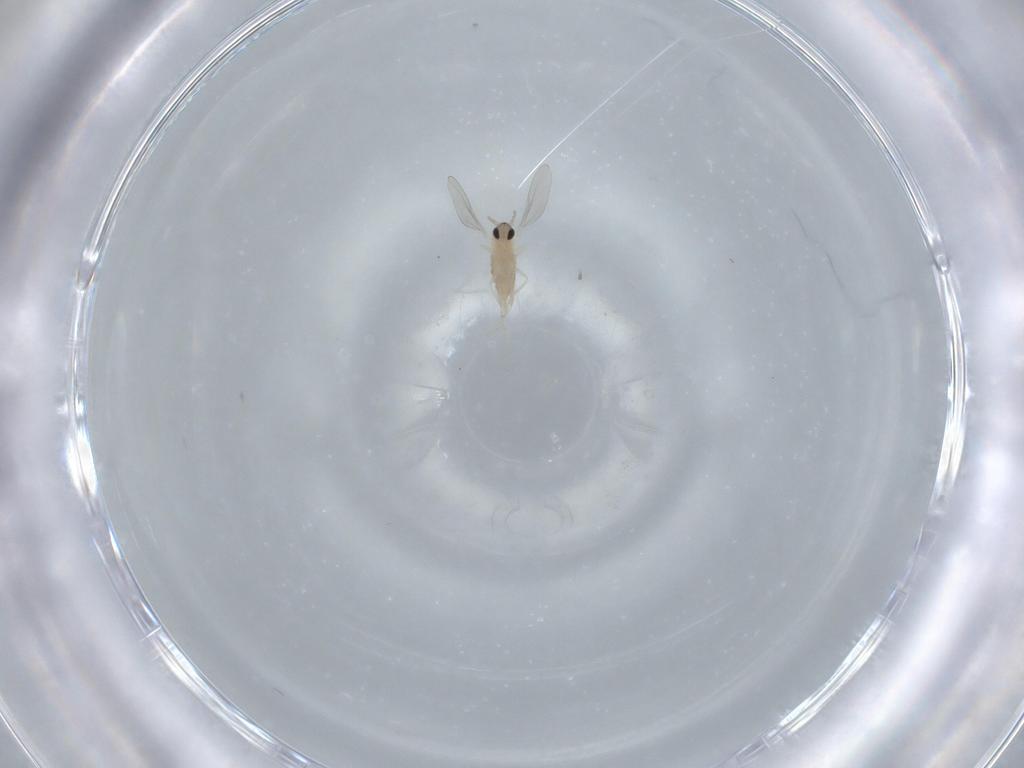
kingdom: Animalia
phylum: Arthropoda
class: Insecta
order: Diptera
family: Cecidomyiidae
